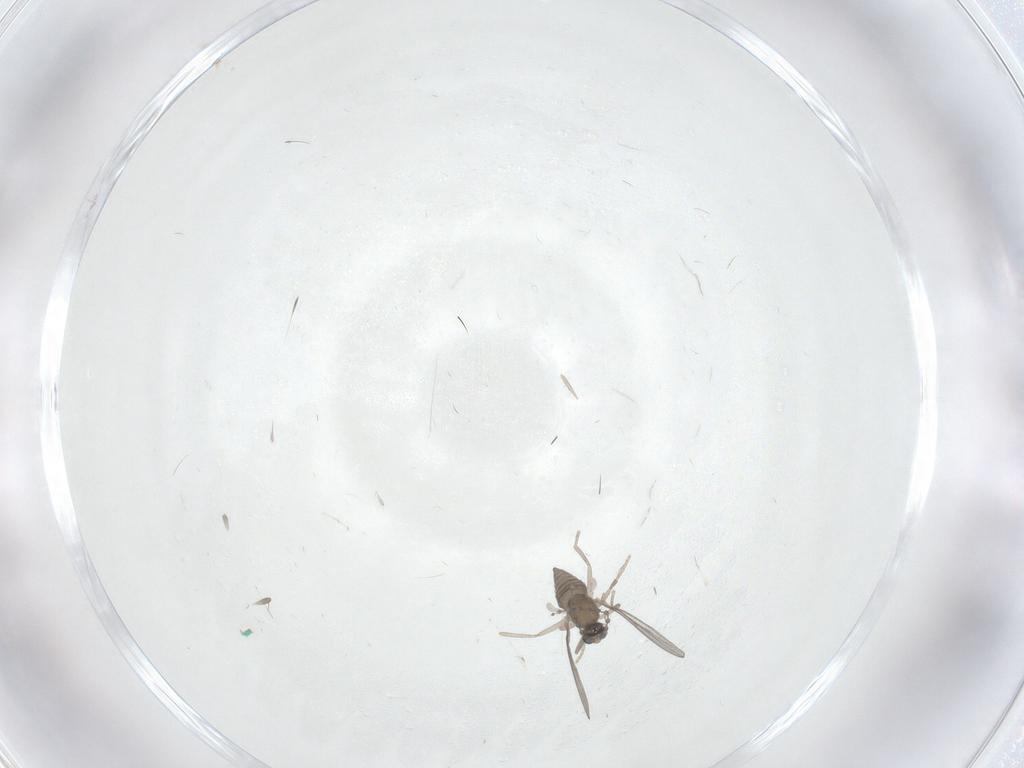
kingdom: Animalia
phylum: Arthropoda
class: Insecta
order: Diptera
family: Cecidomyiidae
